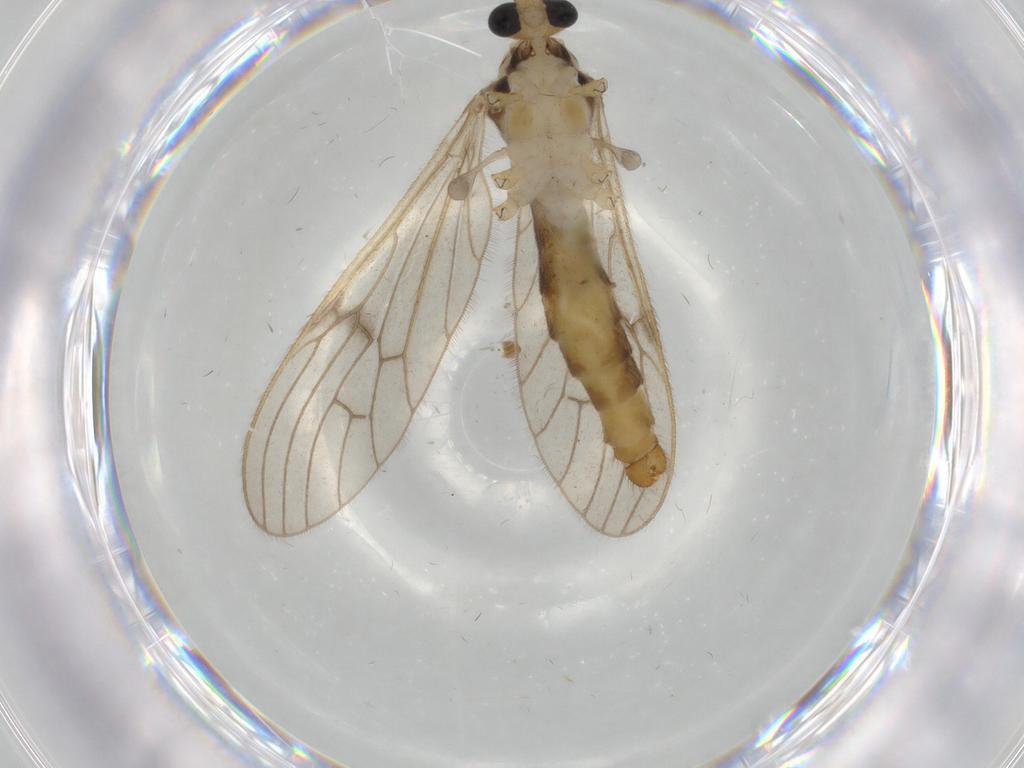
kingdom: Animalia
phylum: Arthropoda
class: Insecta
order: Diptera
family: Cecidomyiidae
